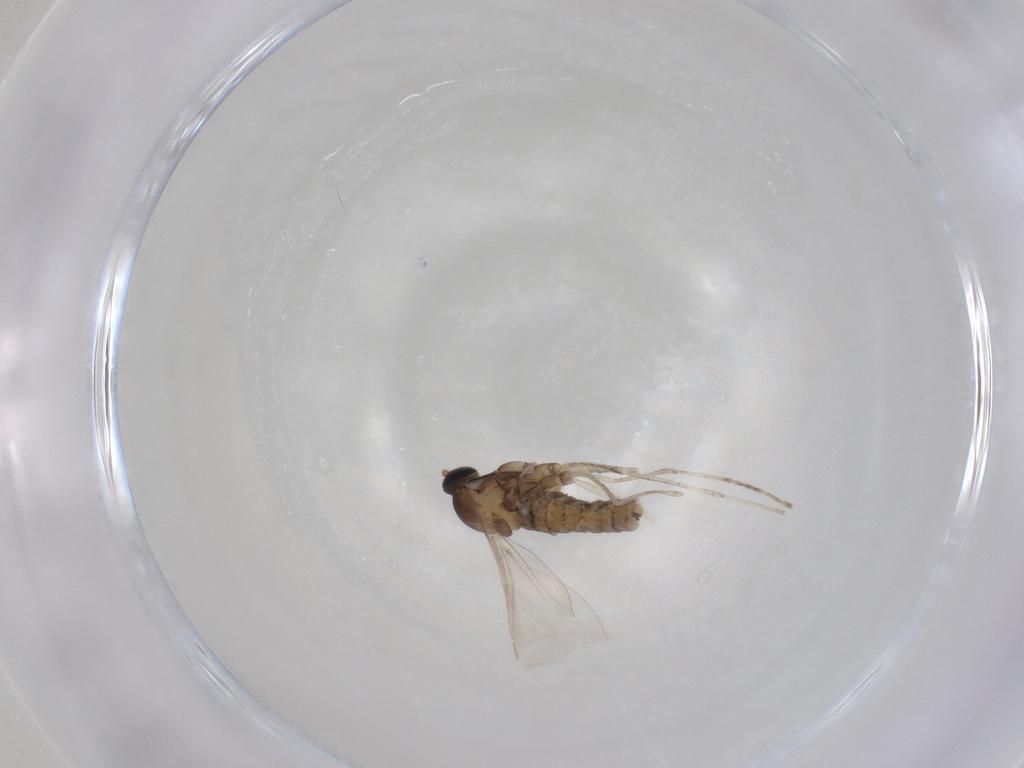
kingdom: Animalia
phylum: Arthropoda
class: Insecta
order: Diptera
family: Cecidomyiidae
